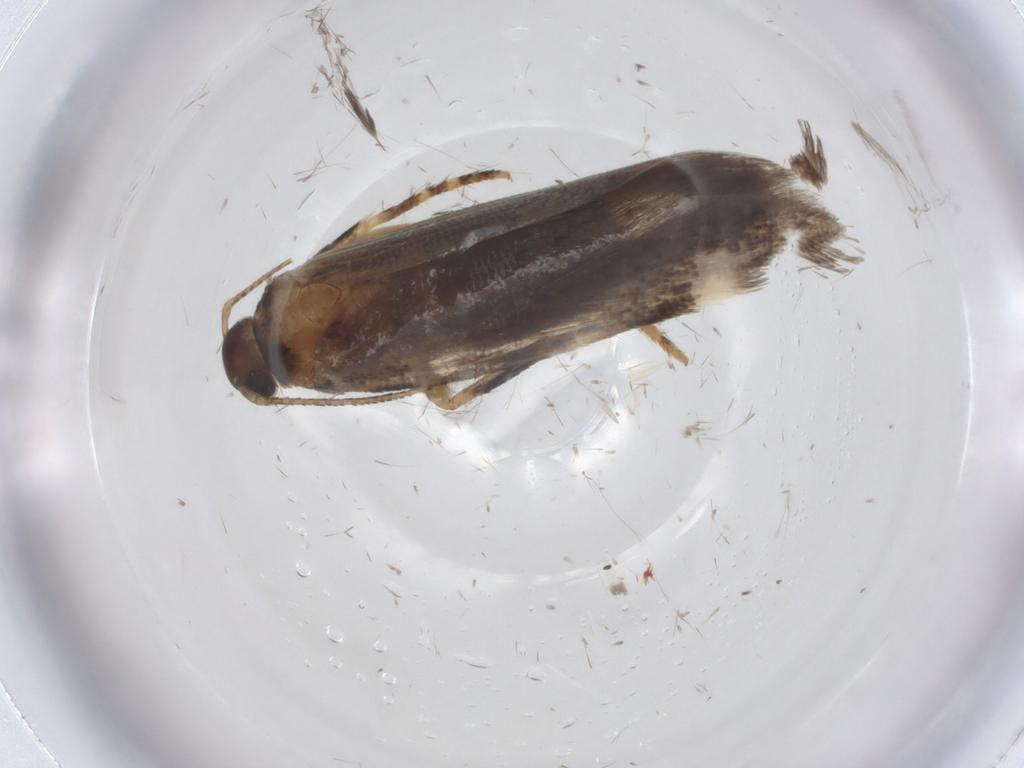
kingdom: Animalia
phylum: Arthropoda
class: Insecta
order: Lepidoptera
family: Gelechiidae
